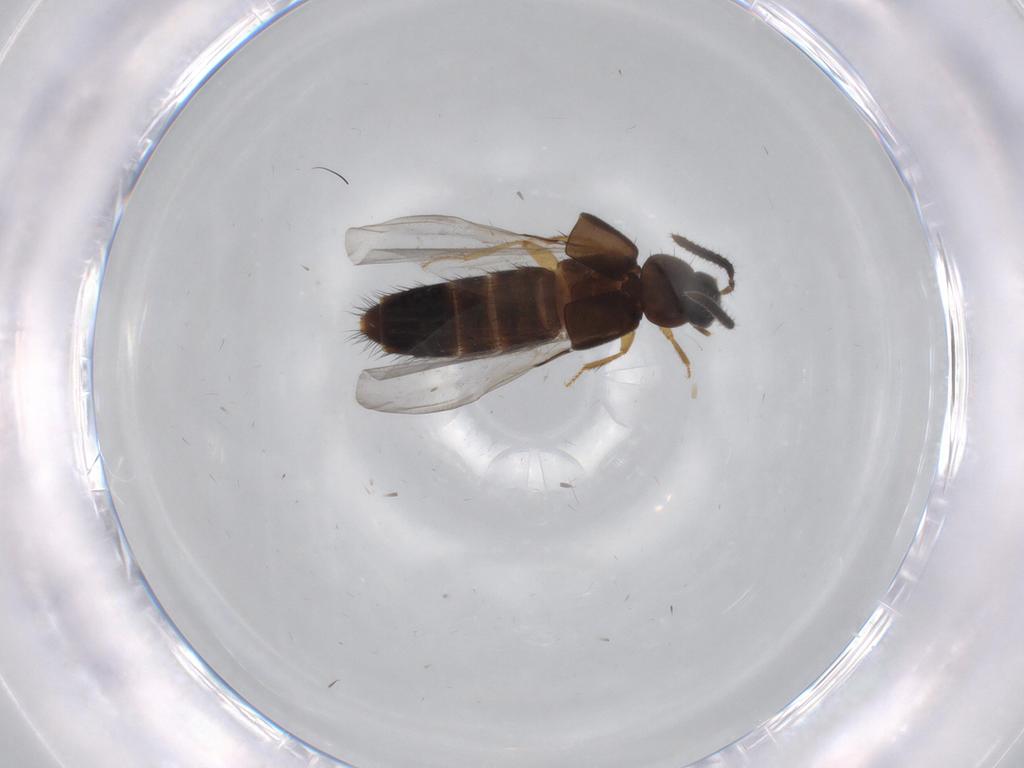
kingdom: Animalia
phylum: Arthropoda
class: Insecta
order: Coleoptera
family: Staphylinidae
